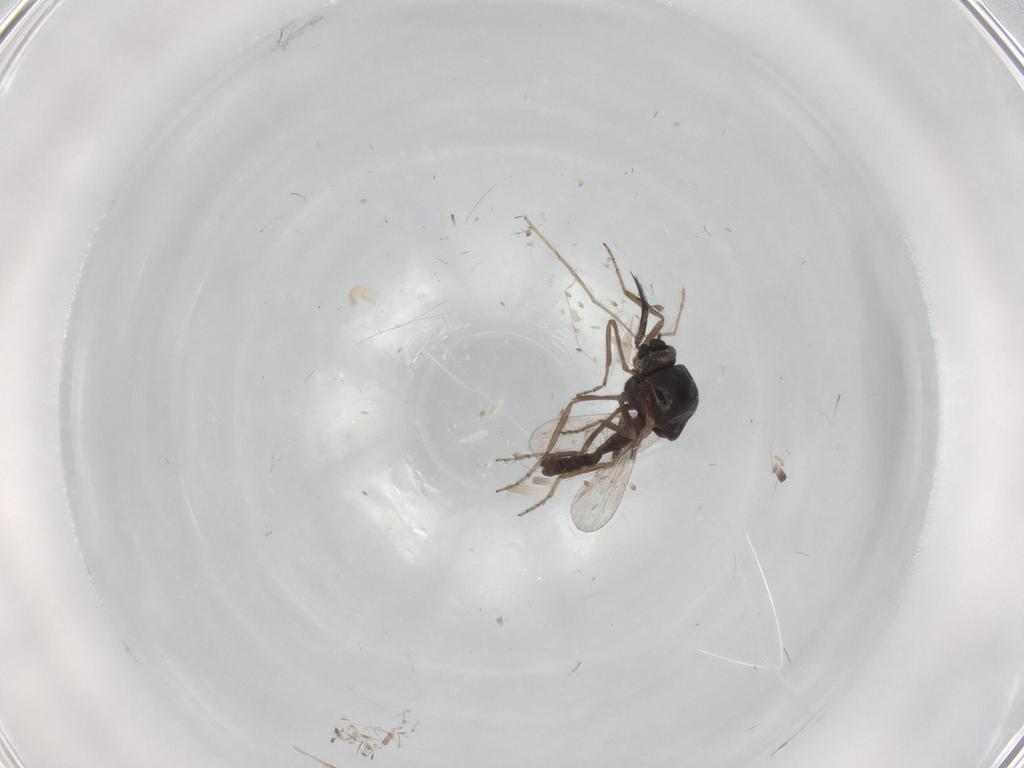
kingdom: Animalia
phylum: Arthropoda
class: Insecta
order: Diptera
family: Ceratopogonidae
